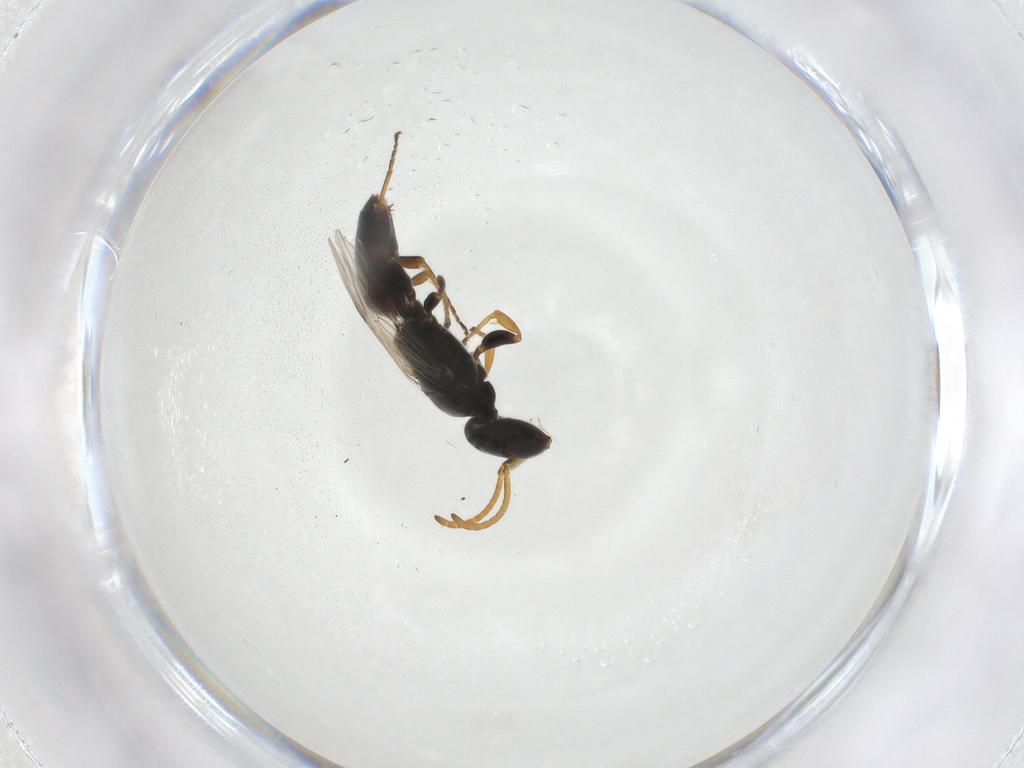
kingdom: Animalia
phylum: Arthropoda
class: Insecta
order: Hymenoptera
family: Braconidae
